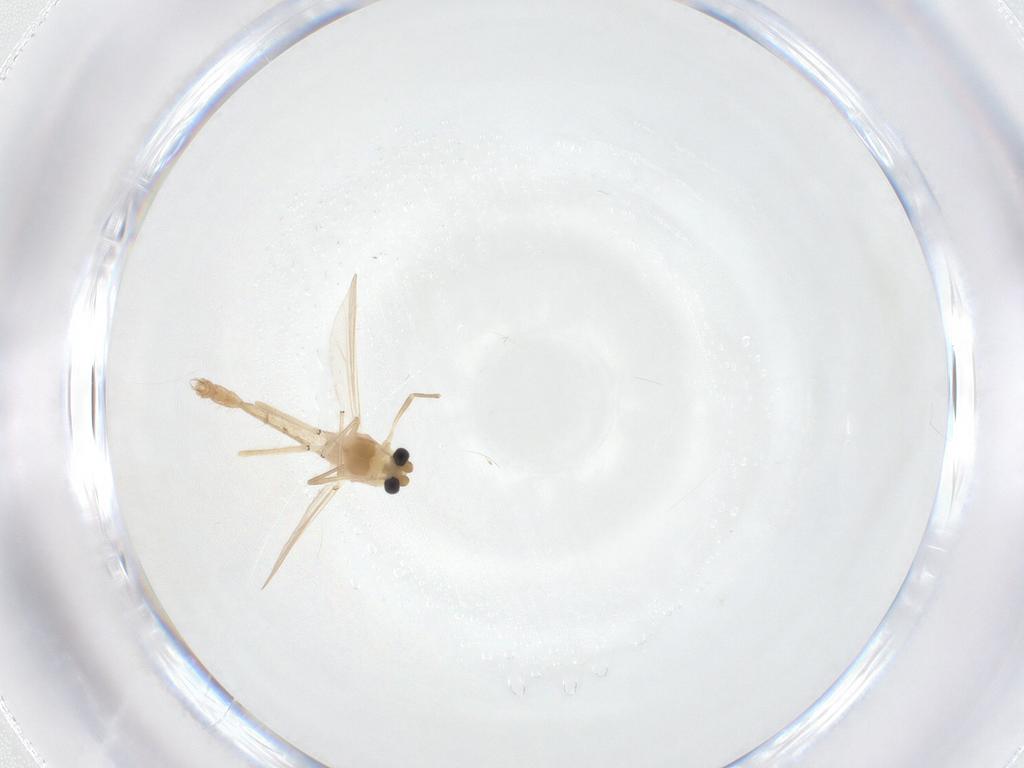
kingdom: Animalia
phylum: Arthropoda
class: Insecta
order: Diptera
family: Chironomidae
